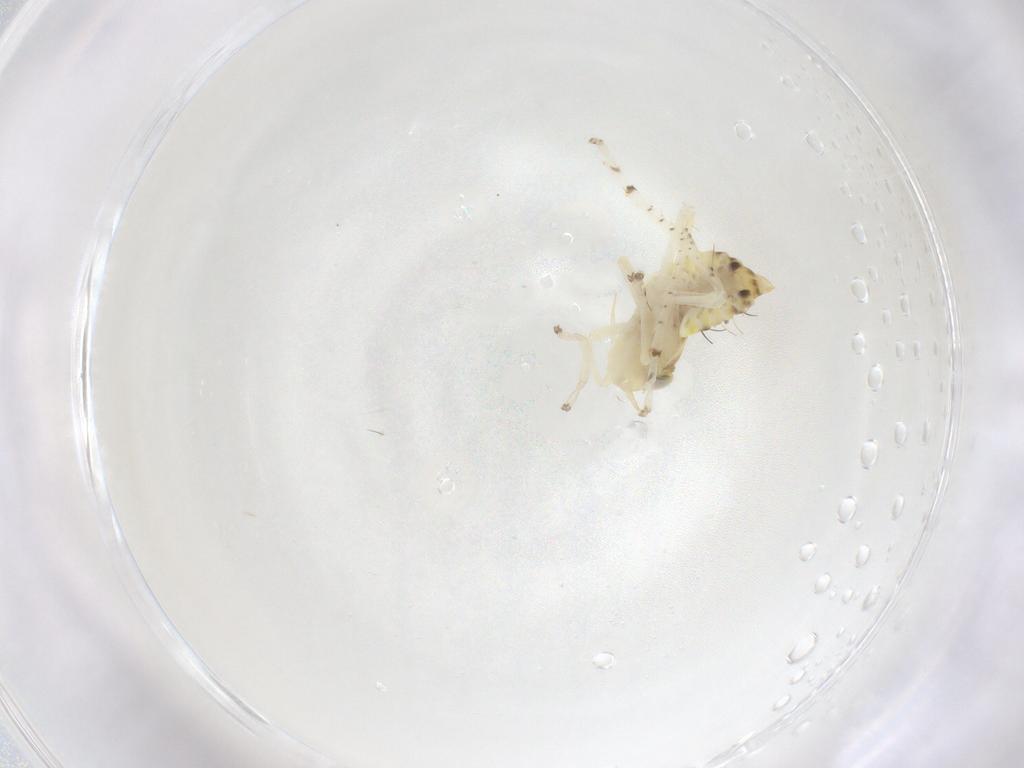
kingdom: Animalia
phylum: Arthropoda
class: Insecta
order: Hemiptera
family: Cicadellidae
